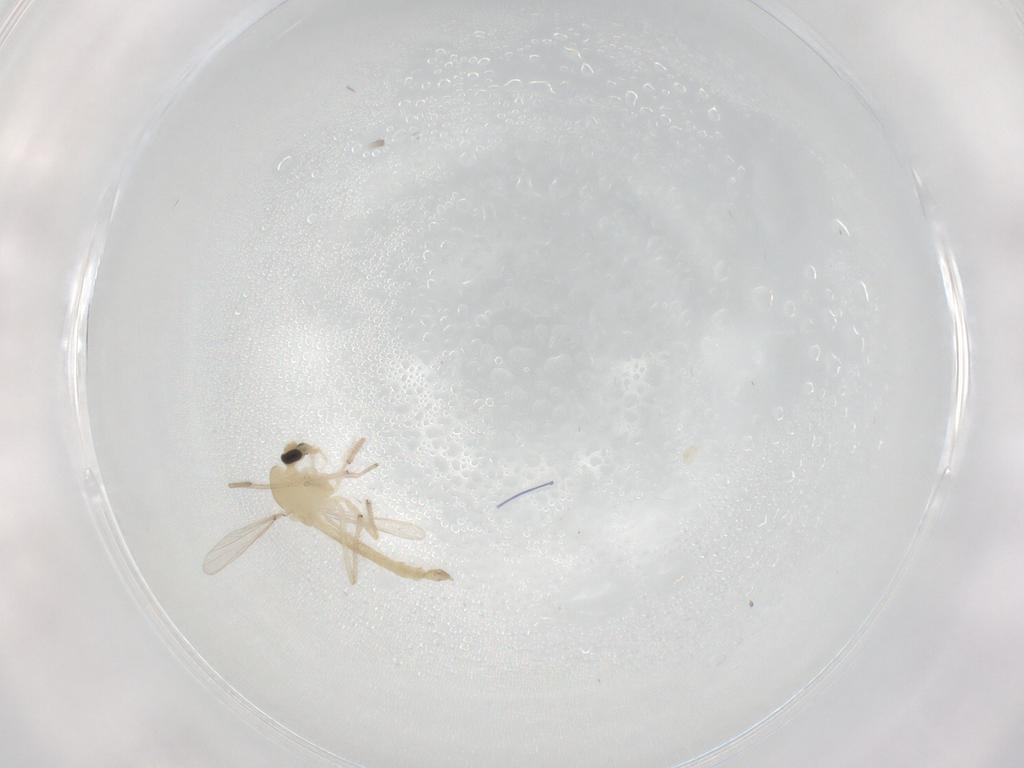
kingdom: Animalia
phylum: Arthropoda
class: Insecta
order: Diptera
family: Chironomidae
